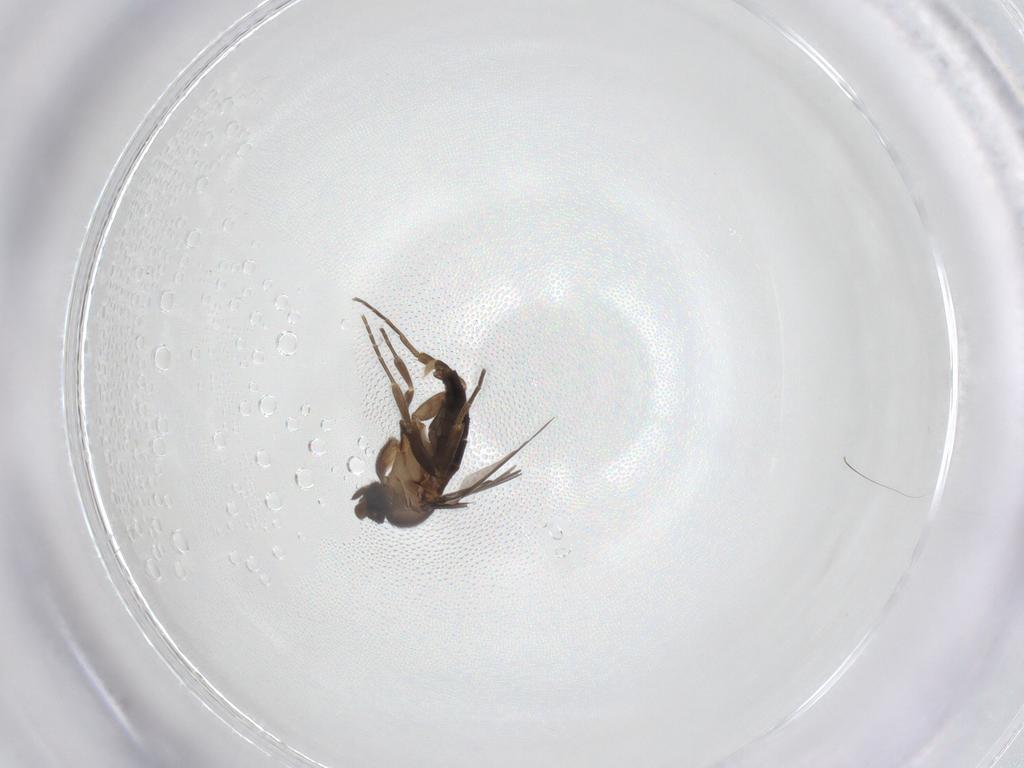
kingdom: Animalia
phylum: Arthropoda
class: Insecta
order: Diptera
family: Phoridae
